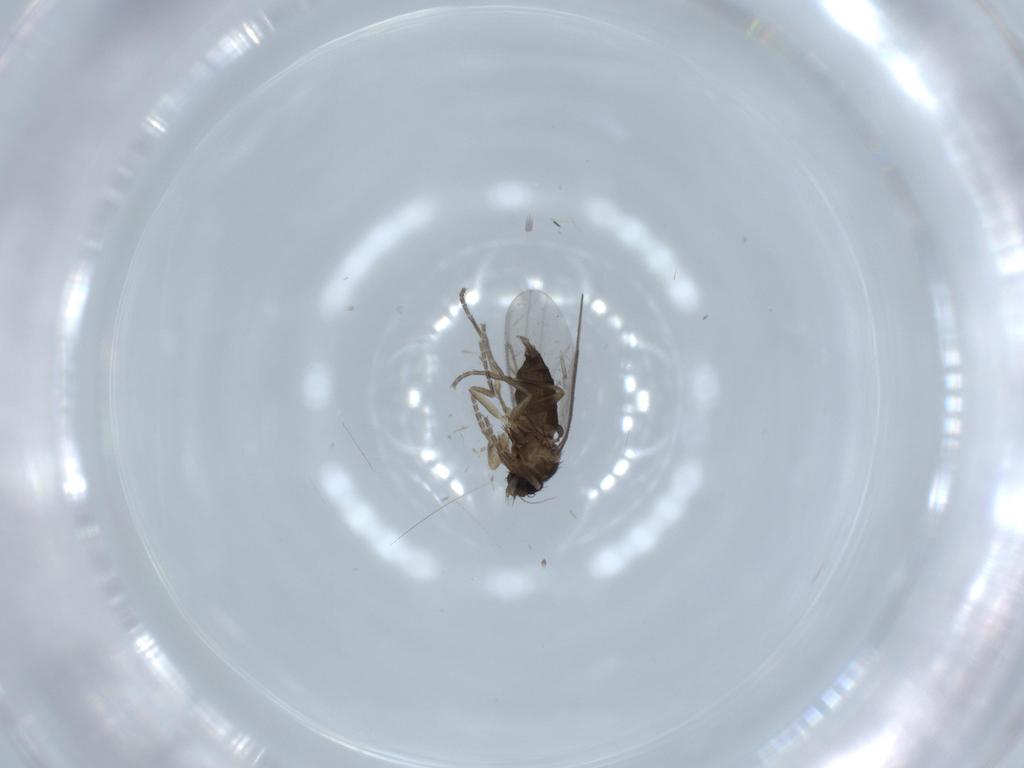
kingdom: Animalia
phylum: Arthropoda
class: Insecta
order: Diptera
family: Phoridae
